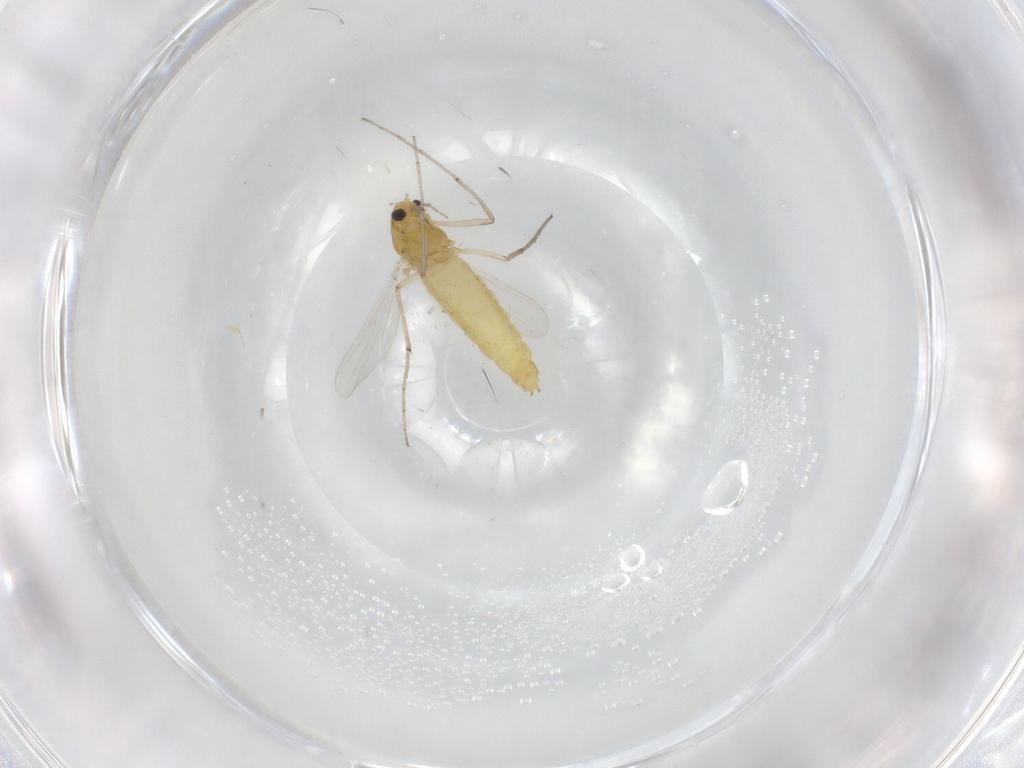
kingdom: Animalia
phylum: Arthropoda
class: Insecta
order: Diptera
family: Chironomidae
